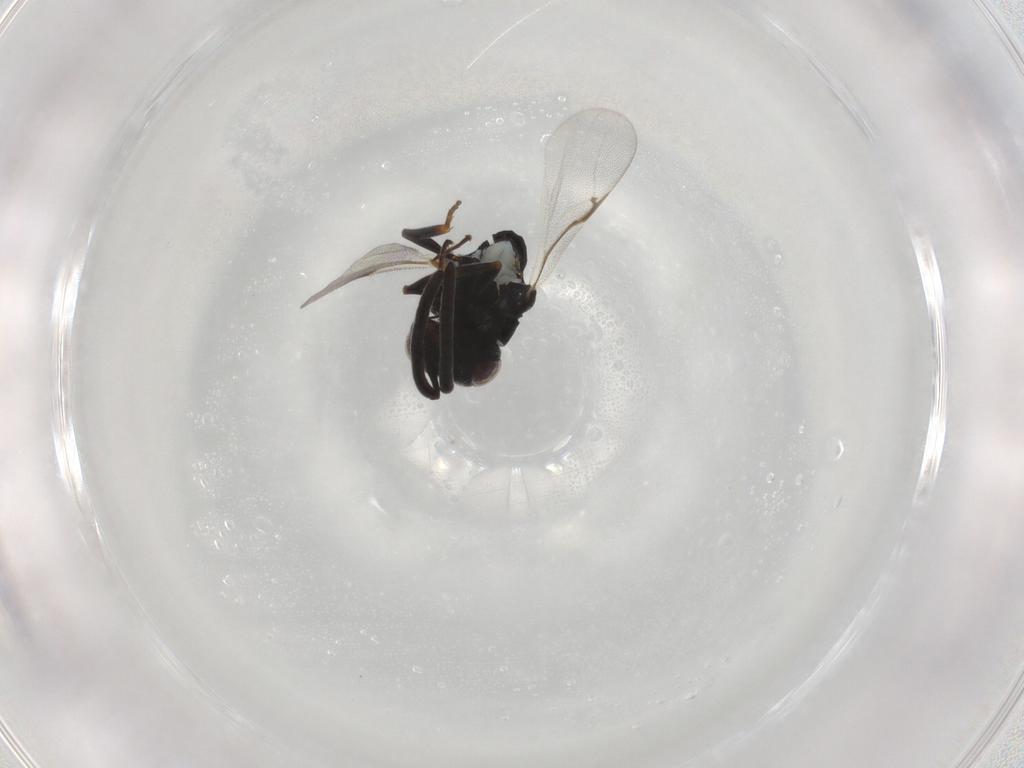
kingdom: Animalia
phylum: Arthropoda
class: Insecta
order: Hymenoptera
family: Chalcididae
